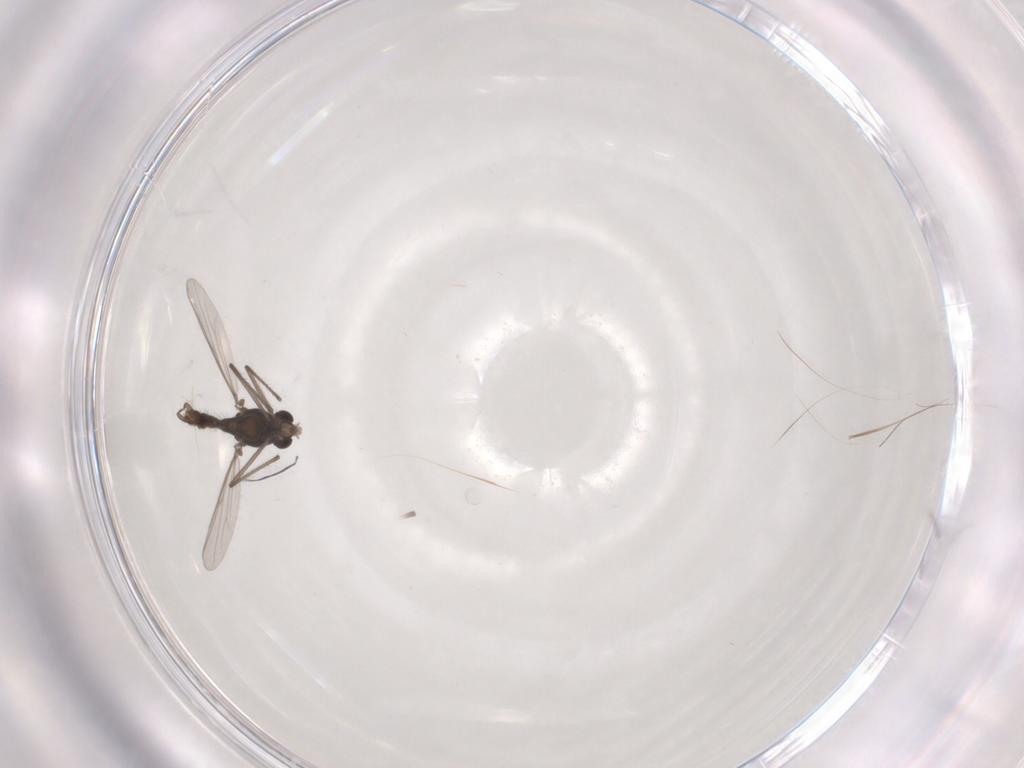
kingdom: Animalia
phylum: Arthropoda
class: Insecta
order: Diptera
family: Chironomidae
